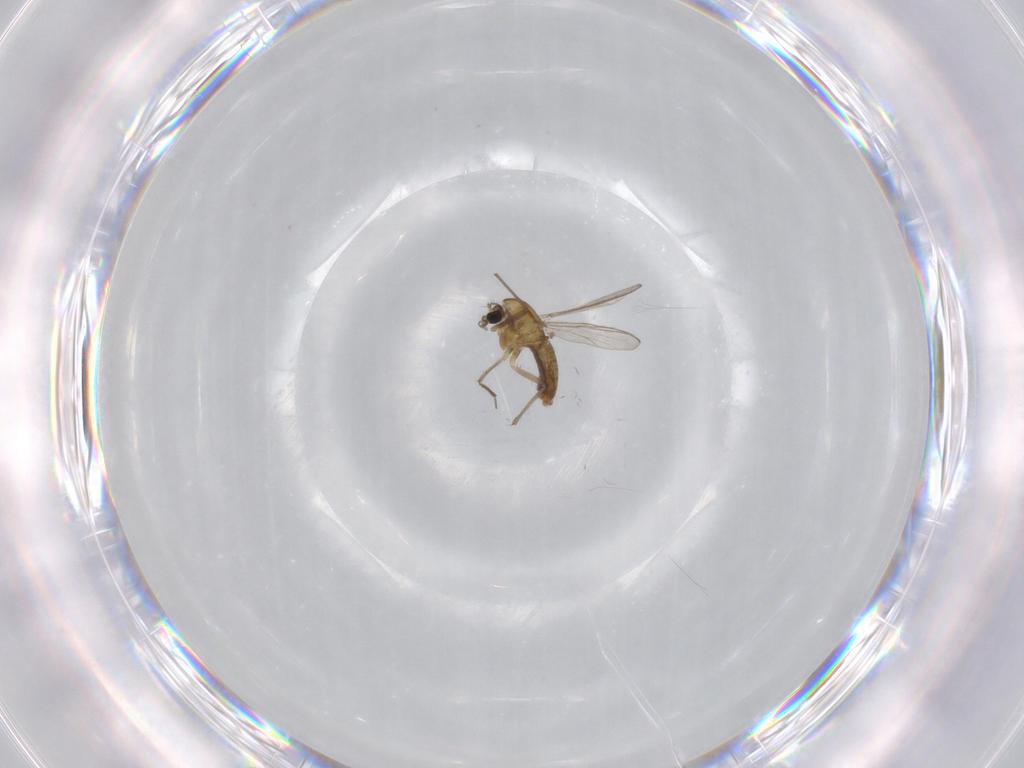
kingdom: Animalia
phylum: Arthropoda
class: Insecta
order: Diptera
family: Chironomidae
